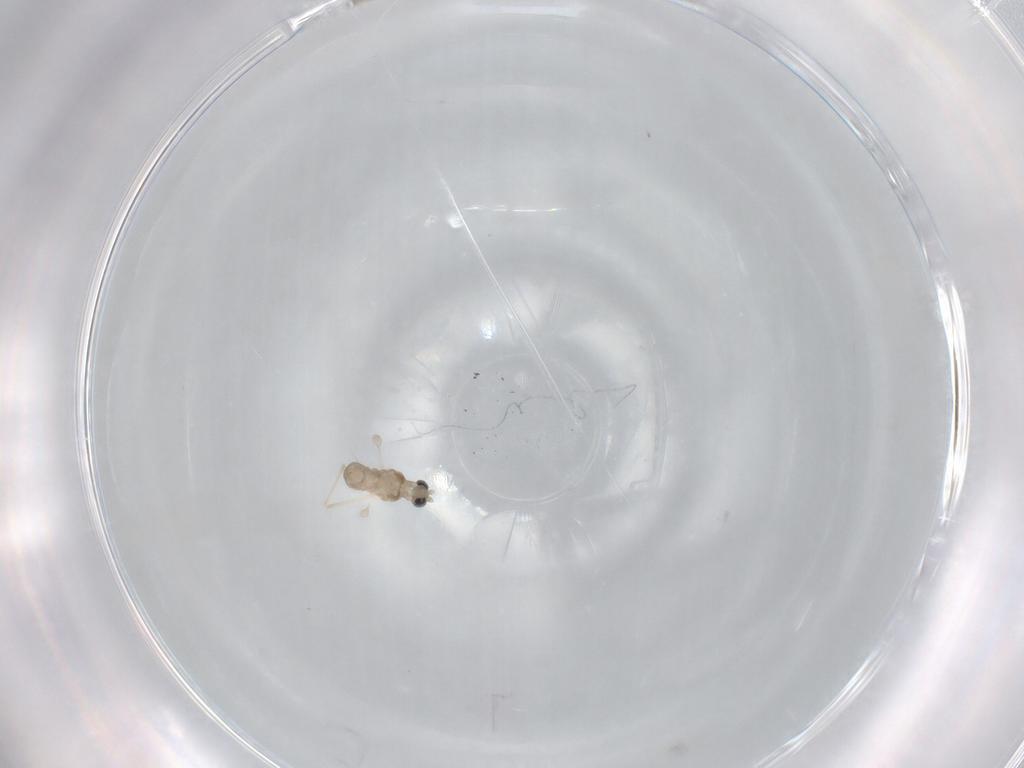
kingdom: Animalia
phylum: Arthropoda
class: Insecta
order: Diptera
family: Cecidomyiidae
